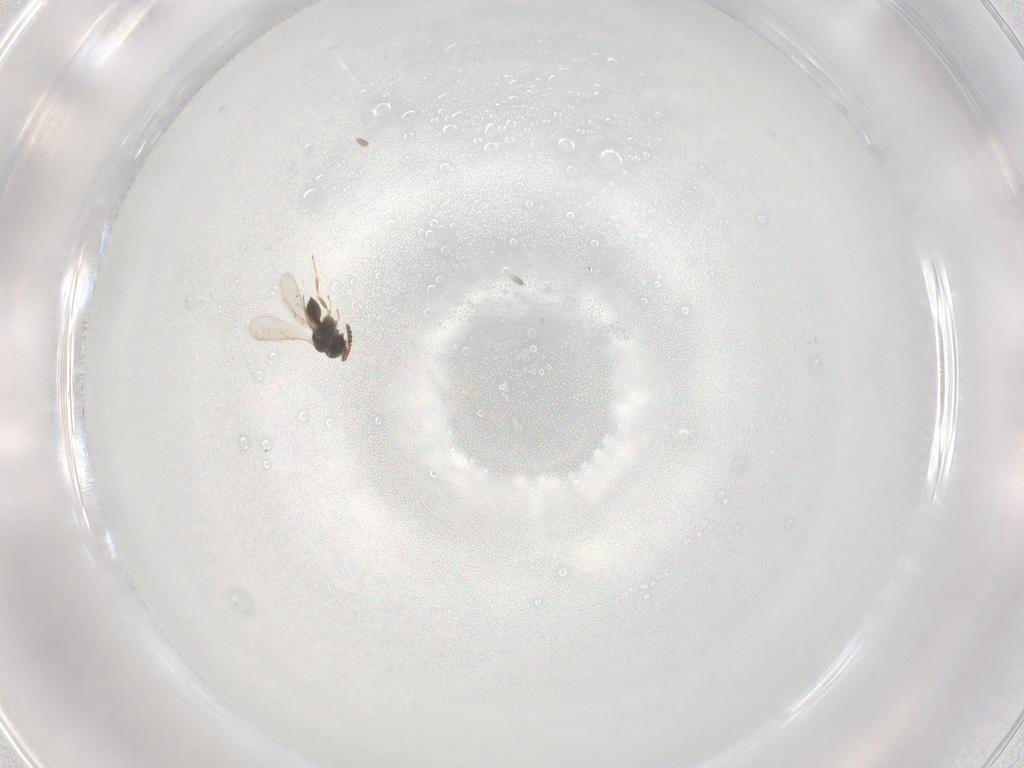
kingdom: Animalia
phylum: Arthropoda
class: Insecta
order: Hymenoptera
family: Scelionidae
